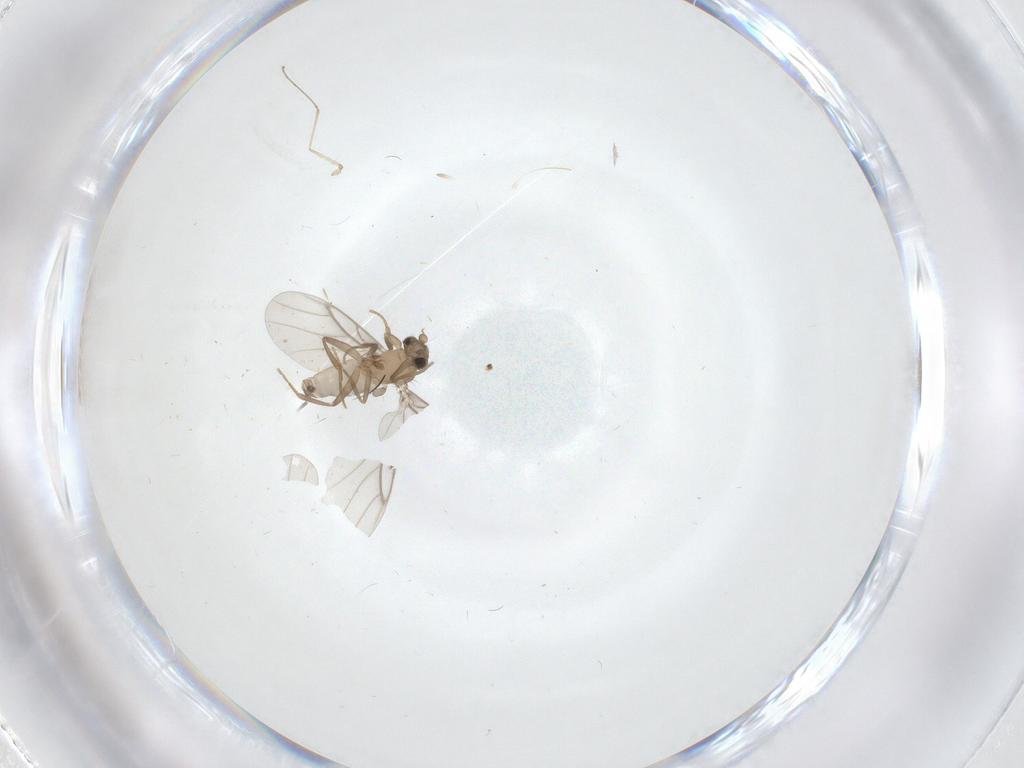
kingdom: Animalia
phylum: Arthropoda
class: Insecta
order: Diptera
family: Cecidomyiidae
